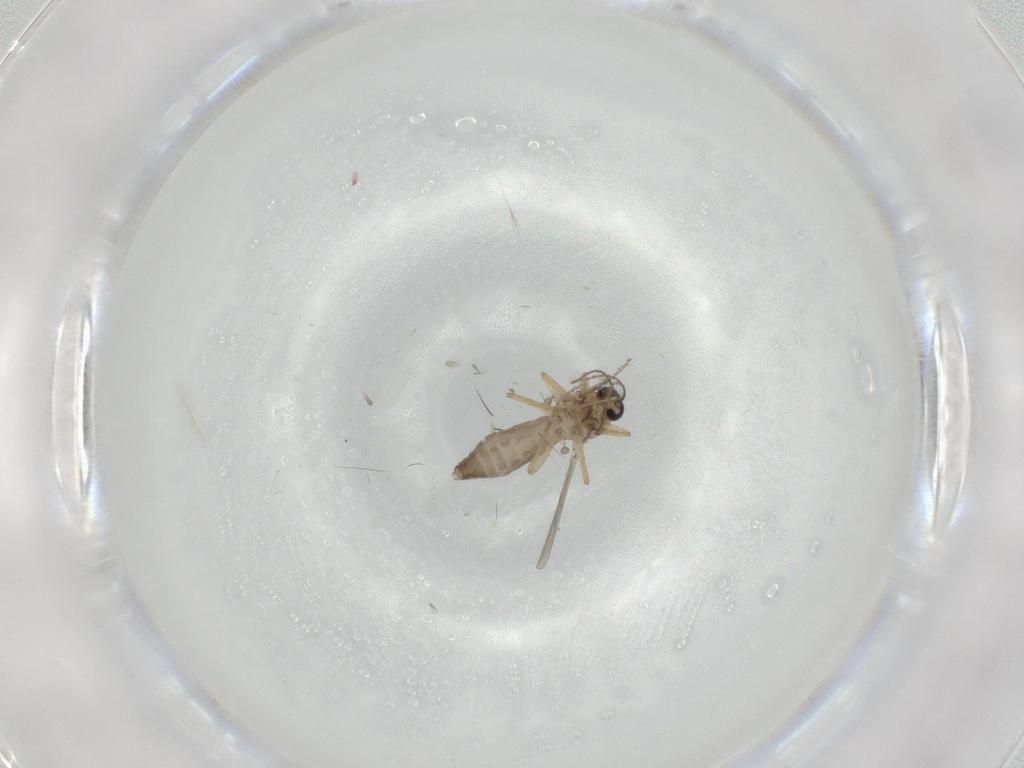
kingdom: Animalia
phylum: Arthropoda
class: Insecta
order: Diptera
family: Ceratopogonidae
